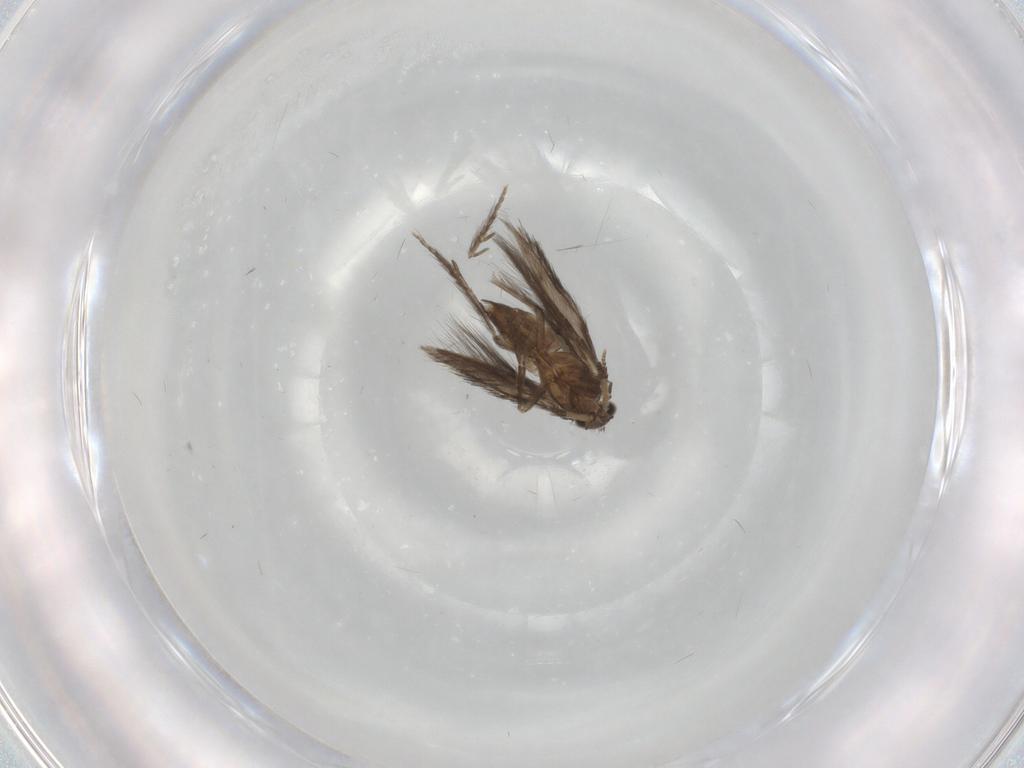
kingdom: Animalia
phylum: Arthropoda
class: Insecta
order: Trichoptera
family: Hydroptilidae
